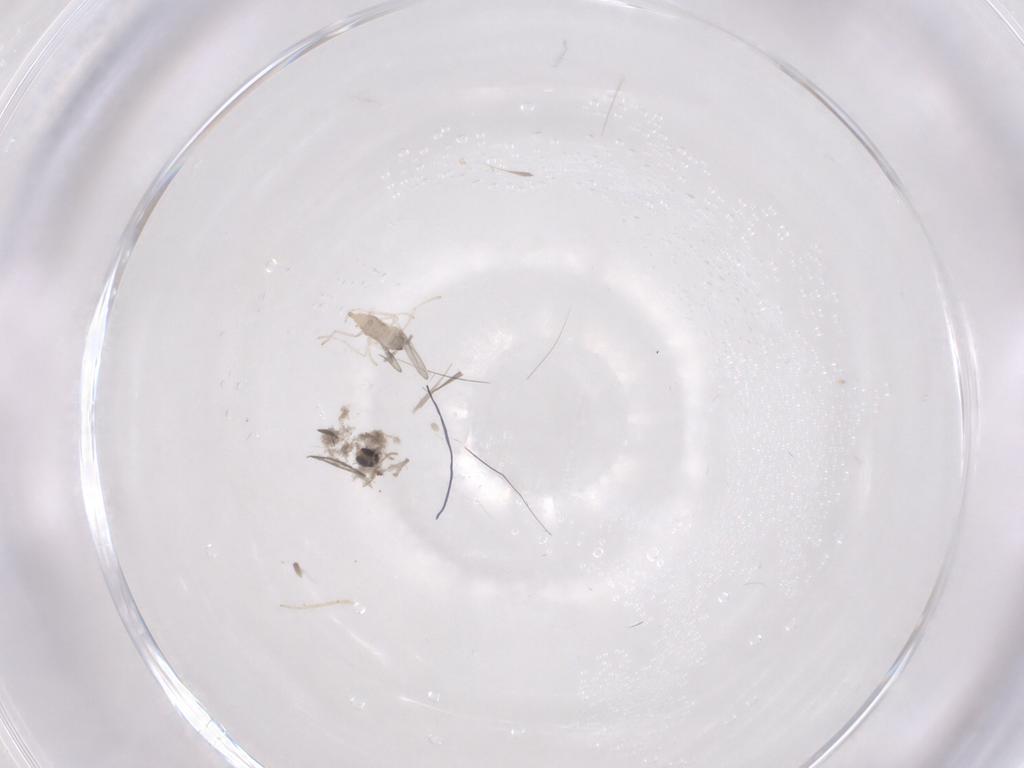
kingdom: Animalia
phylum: Arthropoda
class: Insecta
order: Diptera
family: Cecidomyiidae
